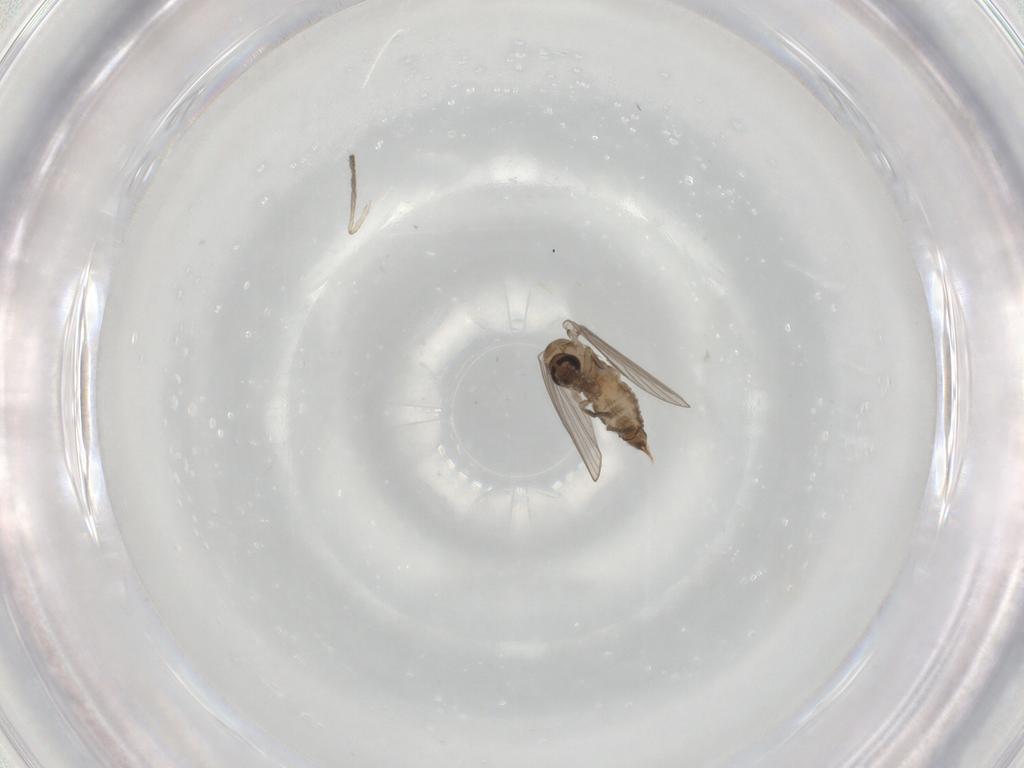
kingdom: Animalia
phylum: Arthropoda
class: Insecta
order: Diptera
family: Psychodidae
